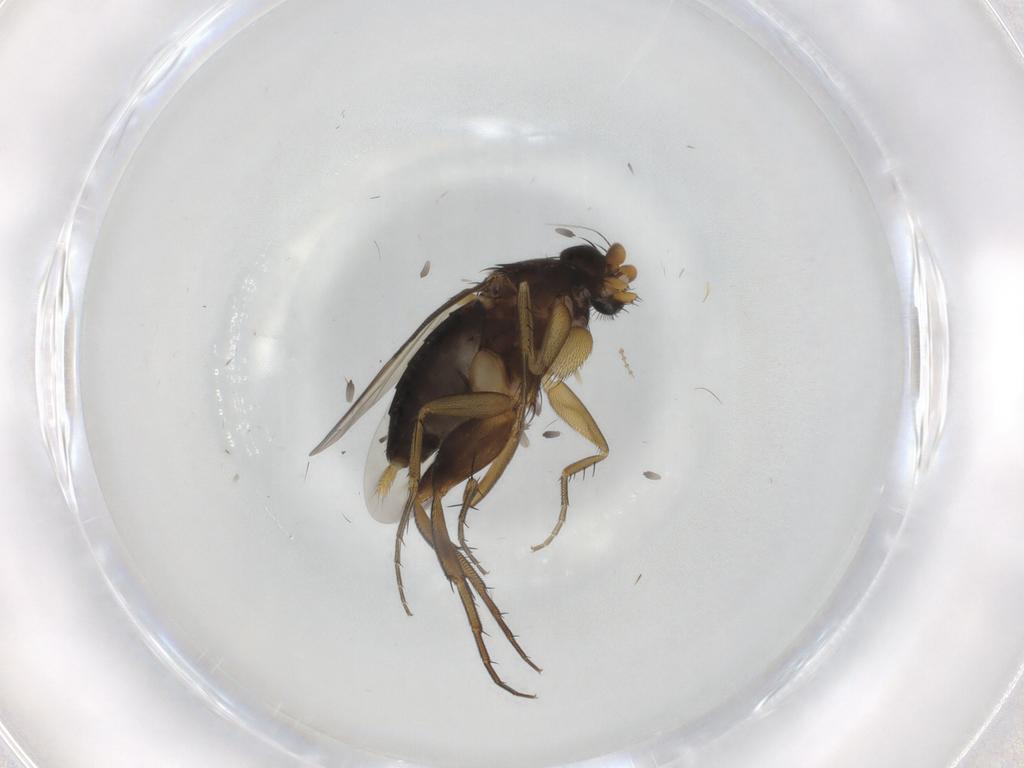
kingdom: Animalia
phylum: Arthropoda
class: Insecta
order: Diptera
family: Phoridae
